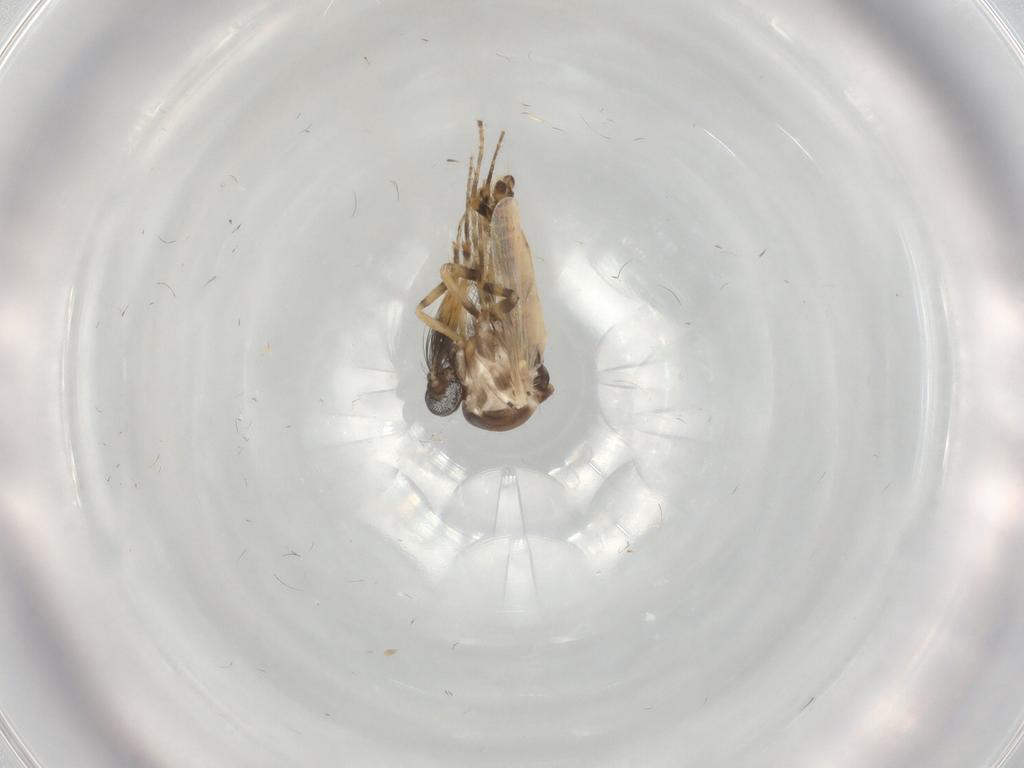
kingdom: Animalia
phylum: Arthropoda
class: Insecta
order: Diptera
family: Ceratopogonidae
